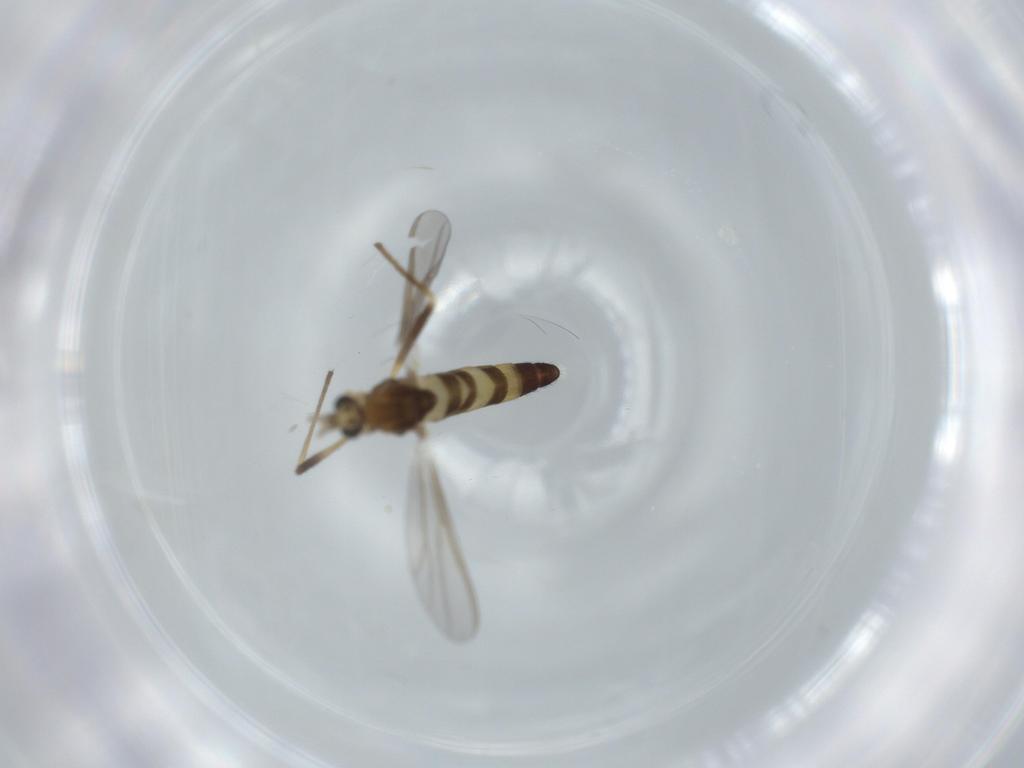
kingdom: Animalia
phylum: Arthropoda
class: Insecta
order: Diptera
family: Chironomidae
